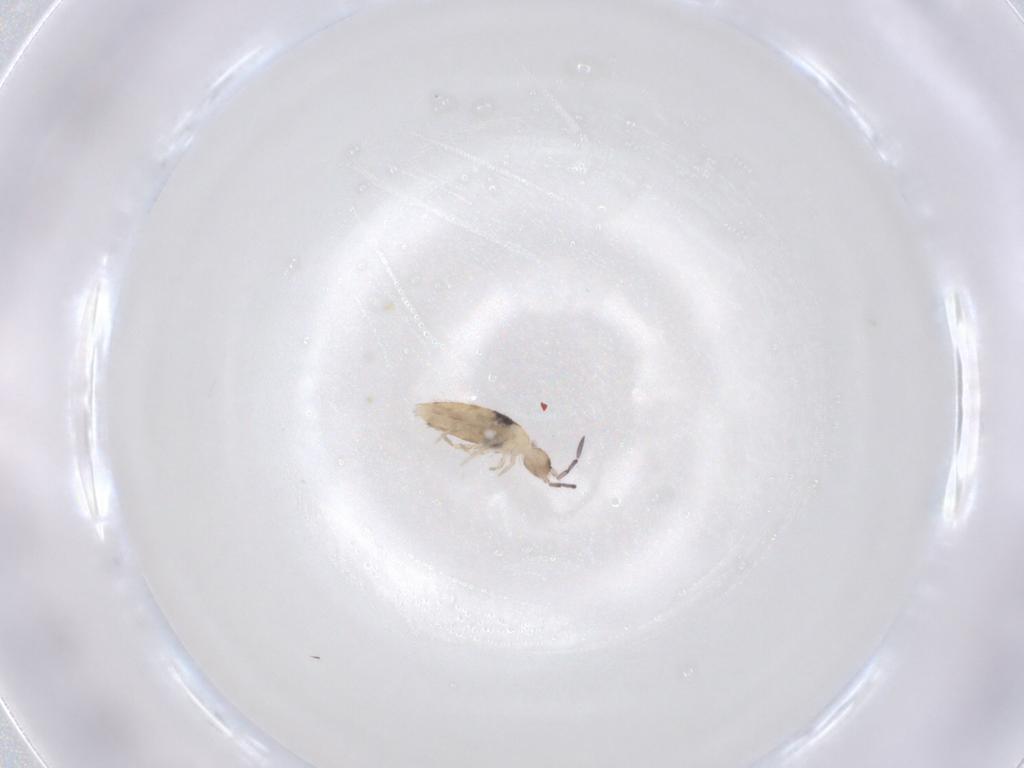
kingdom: Animalia
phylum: Arthropoda
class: Collembola
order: Entomobryomorpha
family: Entomobryidae
